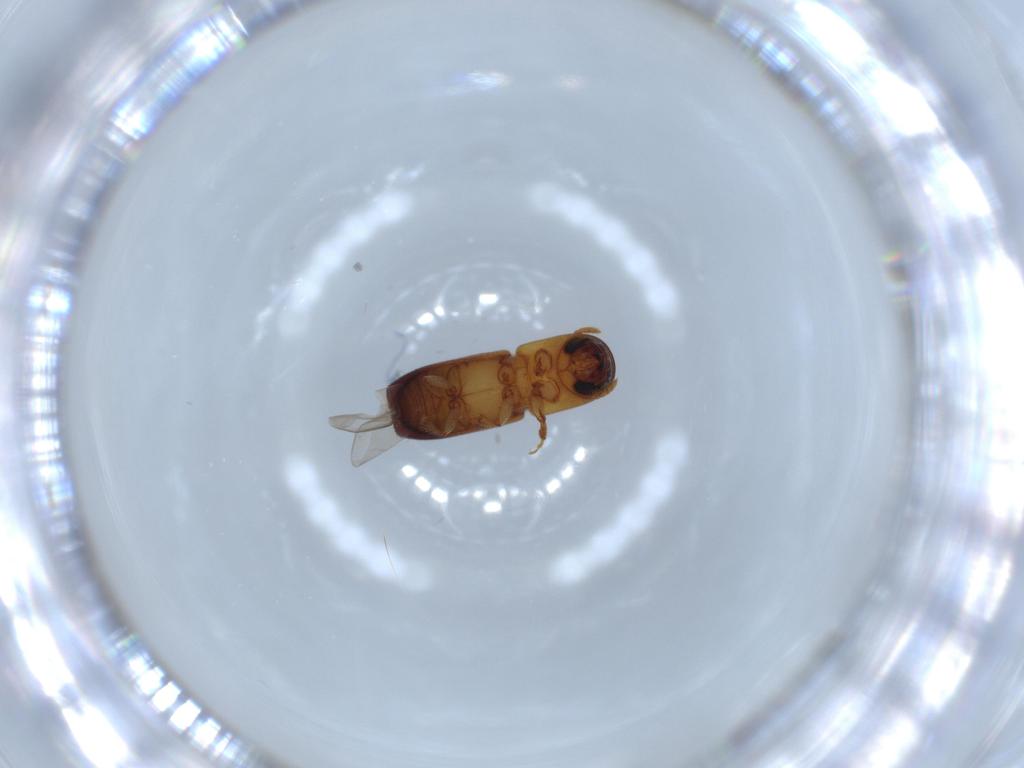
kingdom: Animalia
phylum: Arthropoda
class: Insecta
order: Coleoptera
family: Curculionidae
